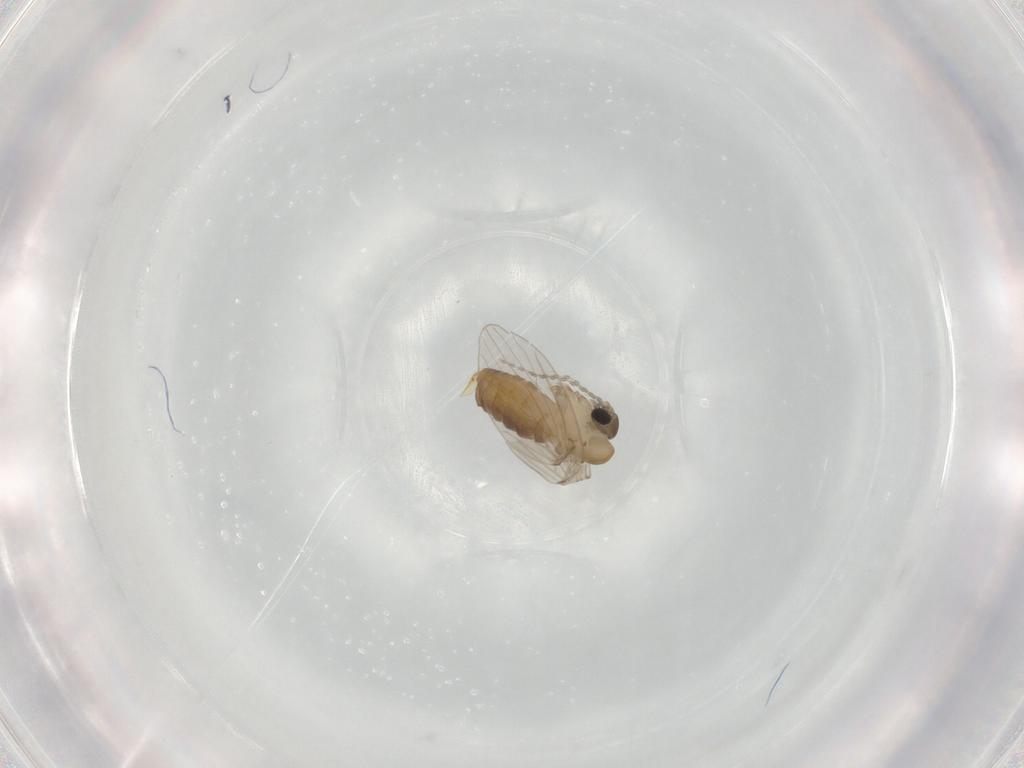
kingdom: Animalia
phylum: Arthropoda
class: Insecta
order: Diptera
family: Psychodidae
